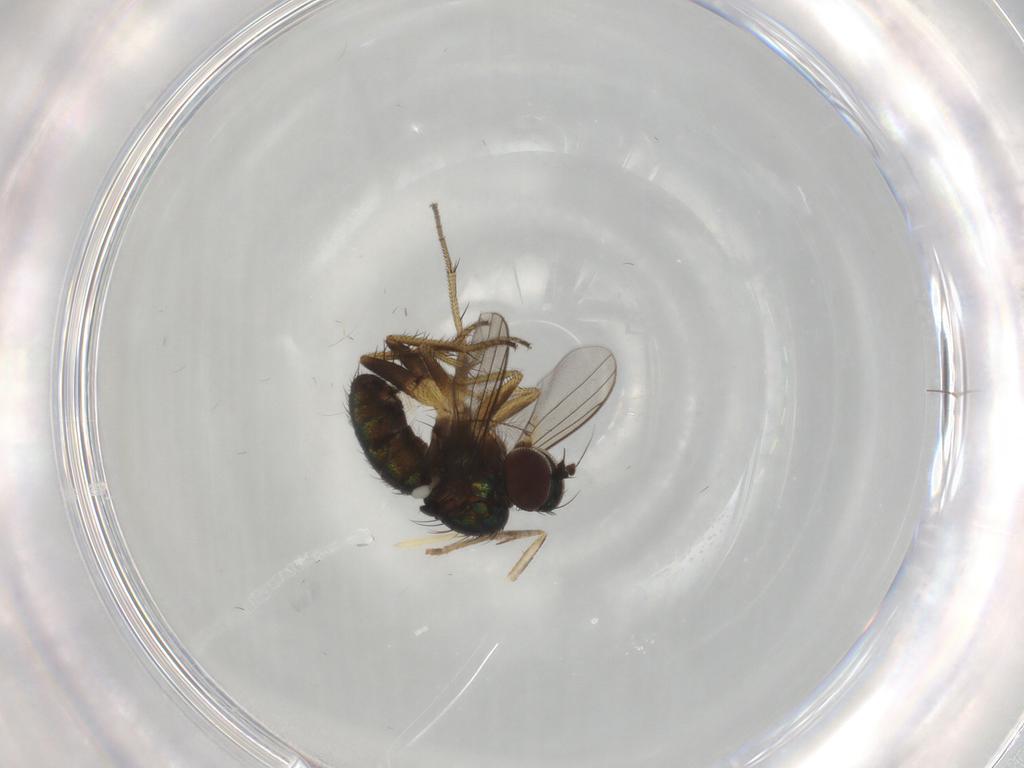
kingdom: Animalia
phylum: Arthropoda
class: Insecta
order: Diptera
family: Dolichopodidae
